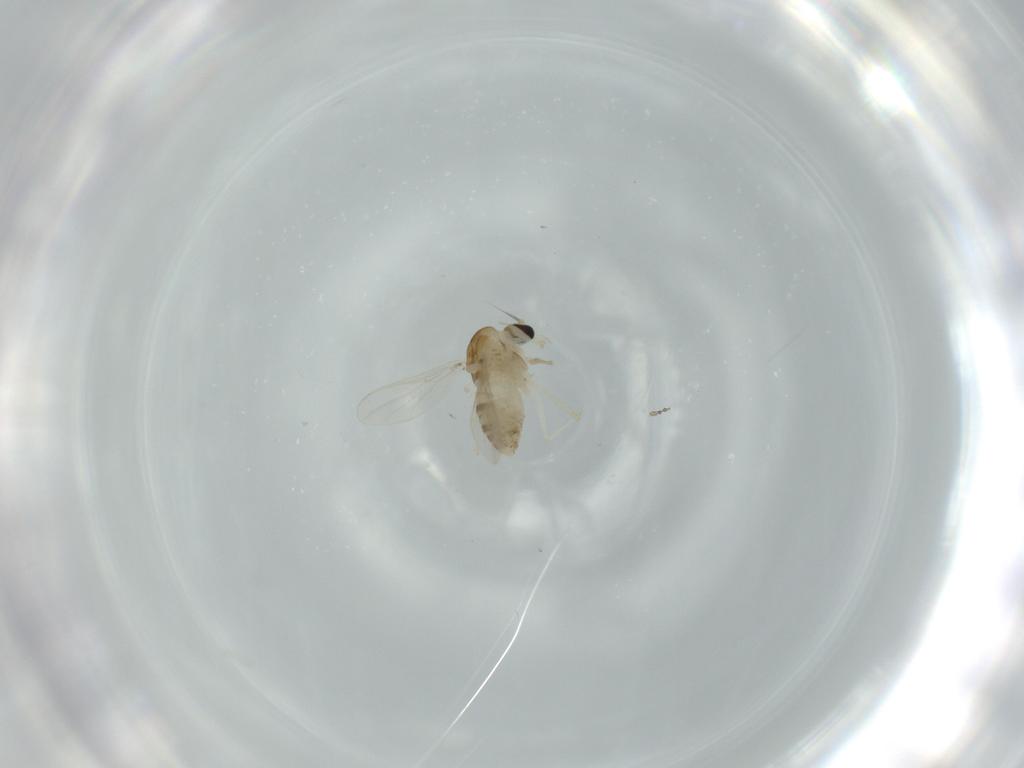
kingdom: Animalia
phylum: Arthropoda
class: Insecta
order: Diptera
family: Chironomidae
